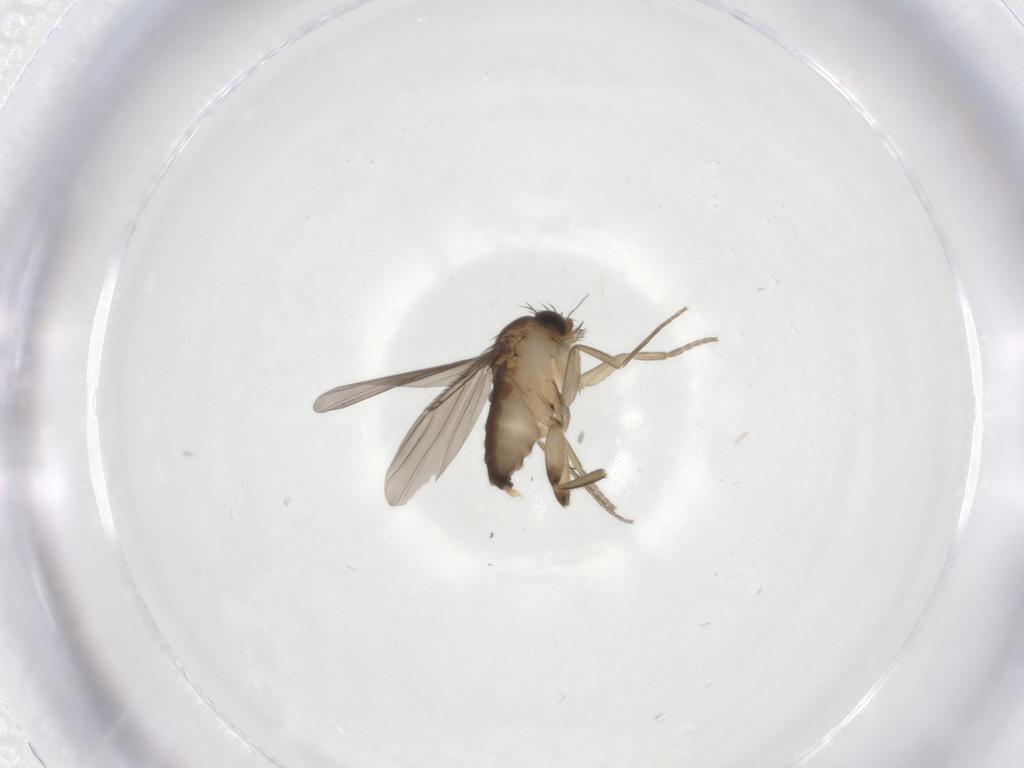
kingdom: Animalia
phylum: Arthropoda
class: Insecta
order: Diptera
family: Phoridae
